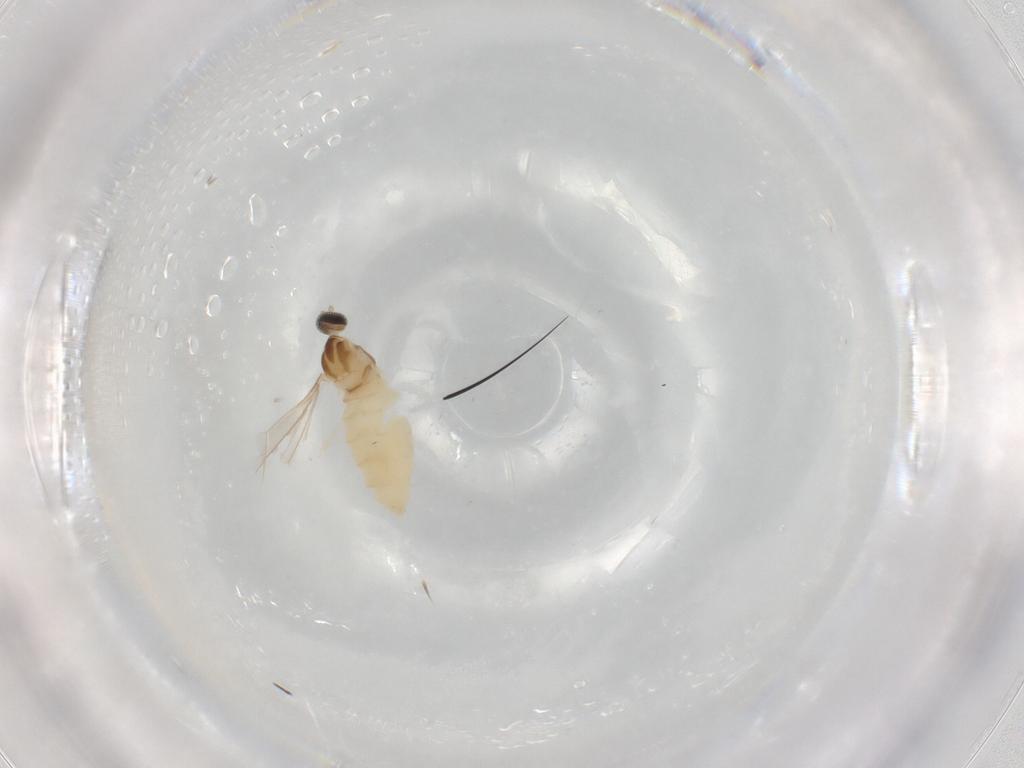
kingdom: Animalia
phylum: Arthropoda
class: Insecta
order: Diptera
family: Cecidomyiidae
